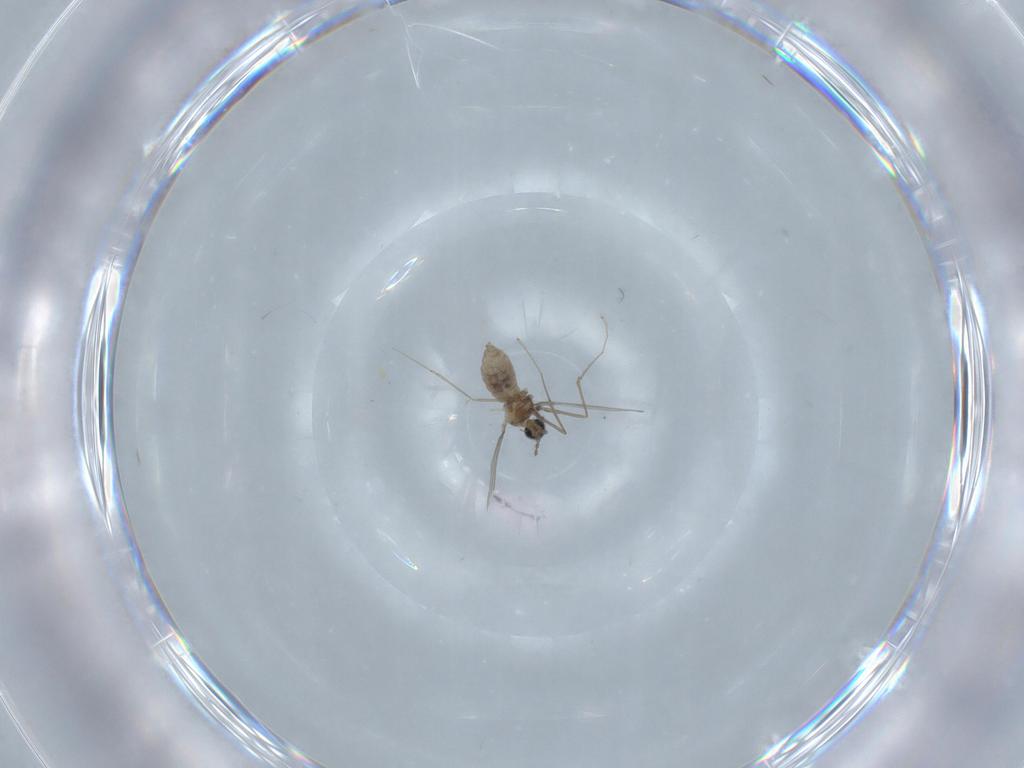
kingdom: Animalia
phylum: Arthropoda
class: Insecta
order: Diptera
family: Cecidomyiidae
